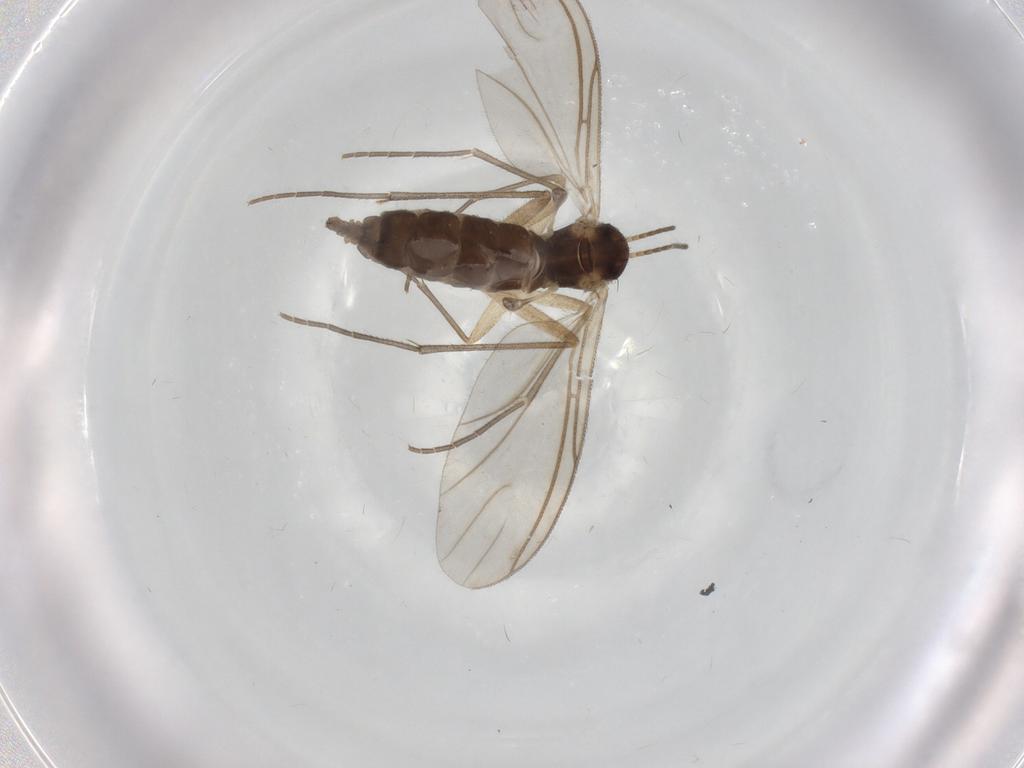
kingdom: Animalia
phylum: Arthropoda
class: Insecta
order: Diptera
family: Sciaridae
